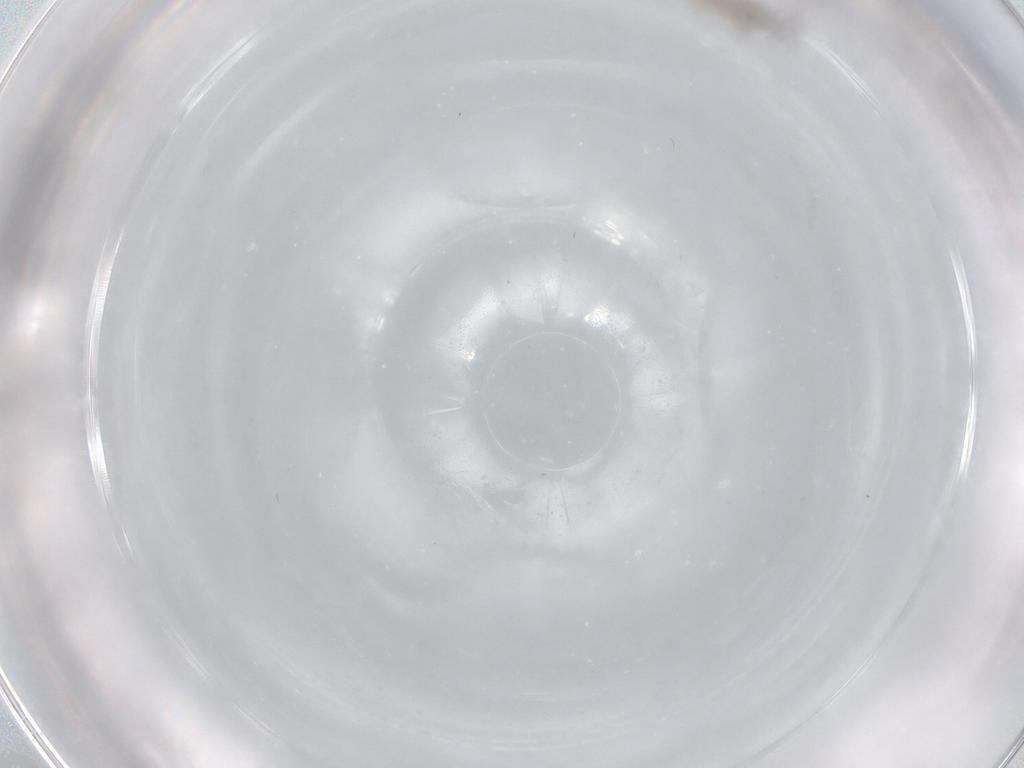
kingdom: Animalia
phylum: Arthropoda
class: Insecta
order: Diptera
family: Cecidomyiidae
